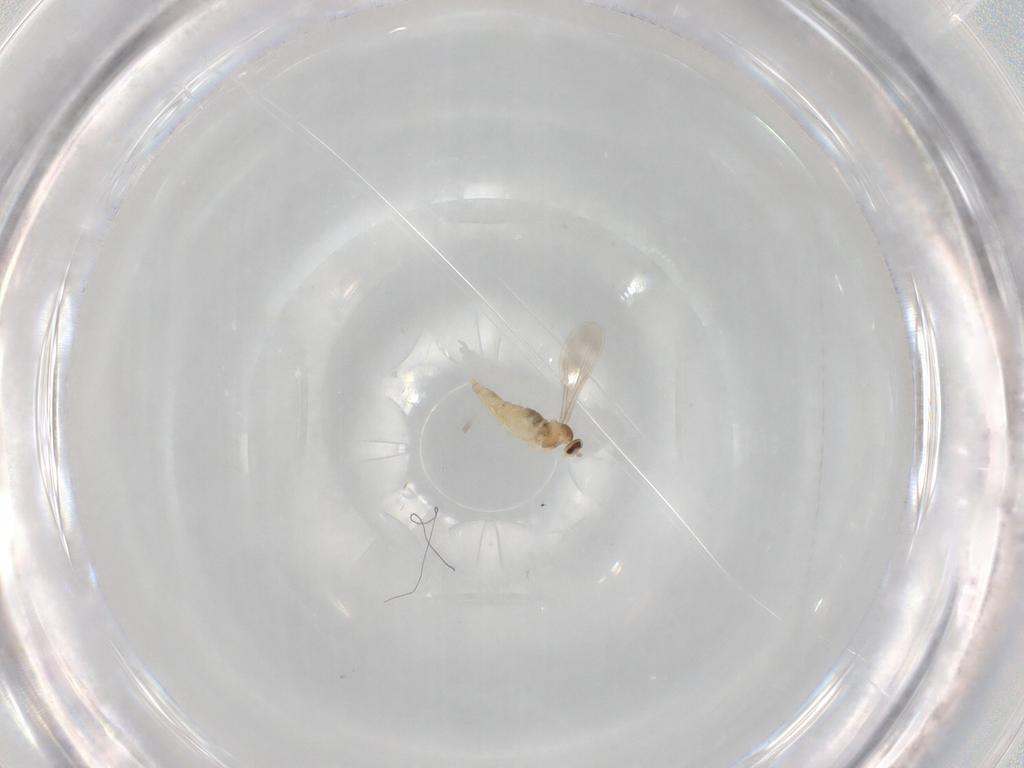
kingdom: Animalia
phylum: Arthropoda
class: Insecta
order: Diptera
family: Cecidomyiidae
